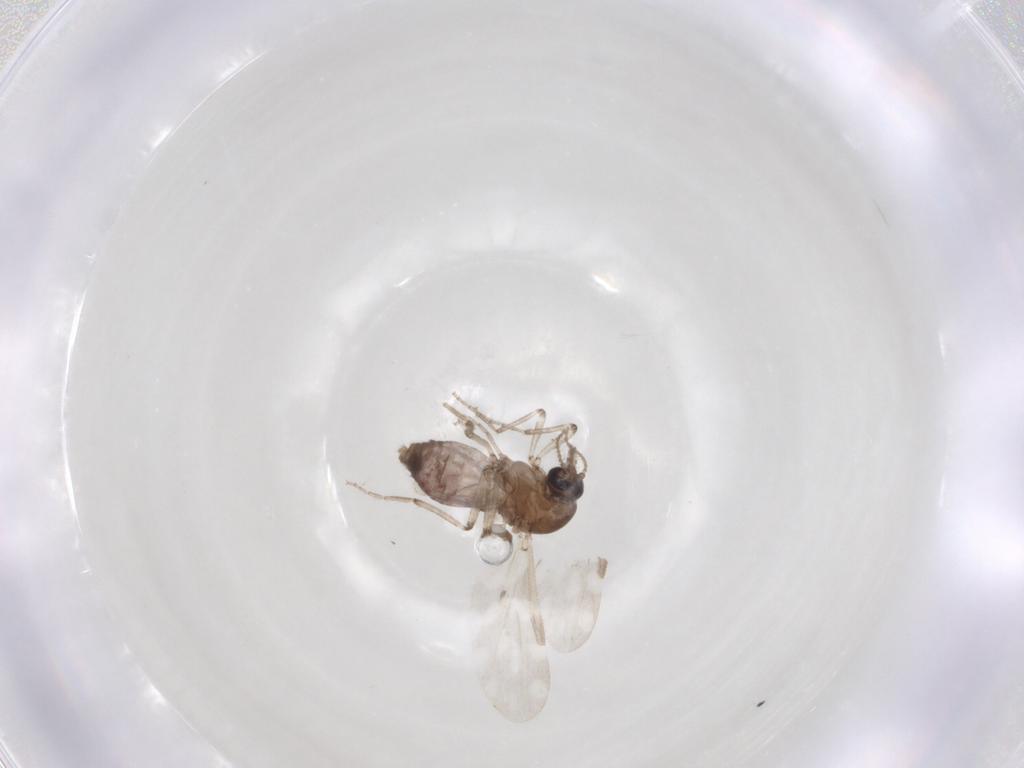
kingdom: Animalia
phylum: Arthropoda
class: Insecta
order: Diptera
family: Ceratopogonidae
